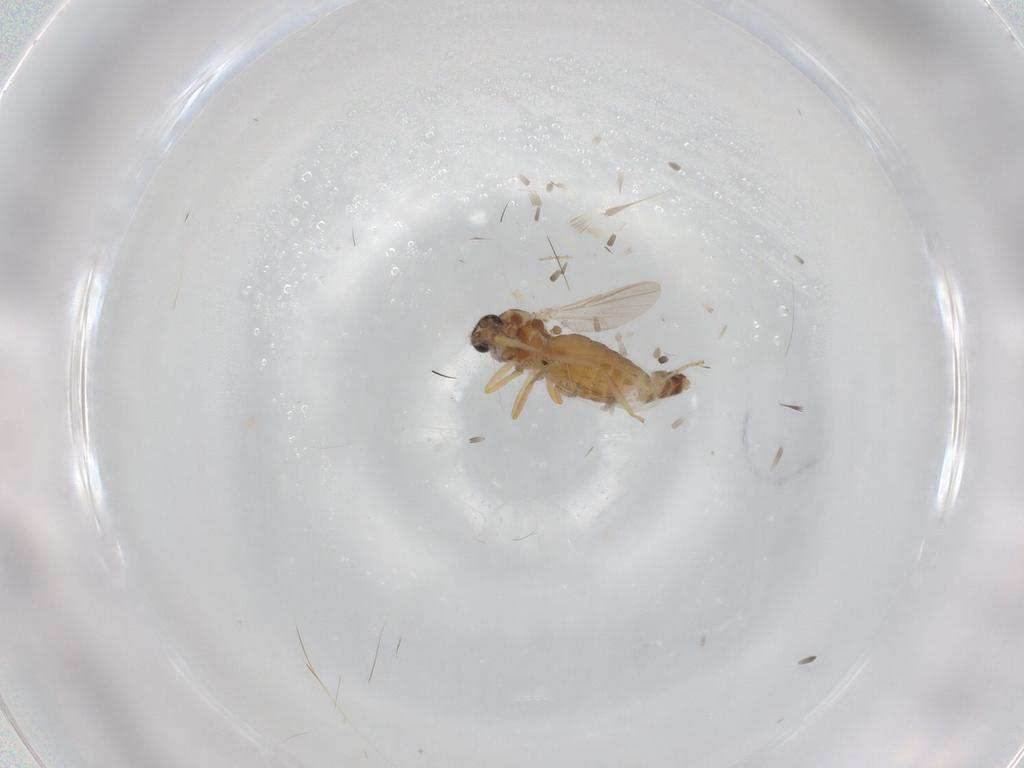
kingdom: Animalia
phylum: Arthropoda
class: Insecta
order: Diptera
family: Ceratopogonidae
